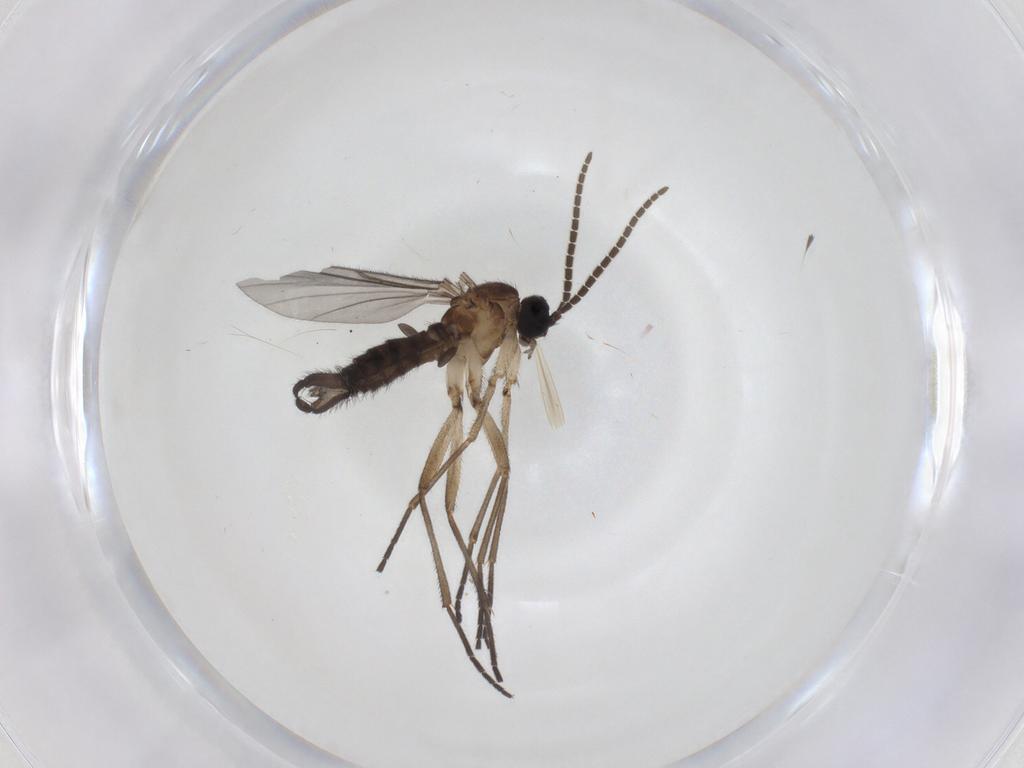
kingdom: Animalia
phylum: Arthropoda
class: Insecta
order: Diptera
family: Sciaridae
